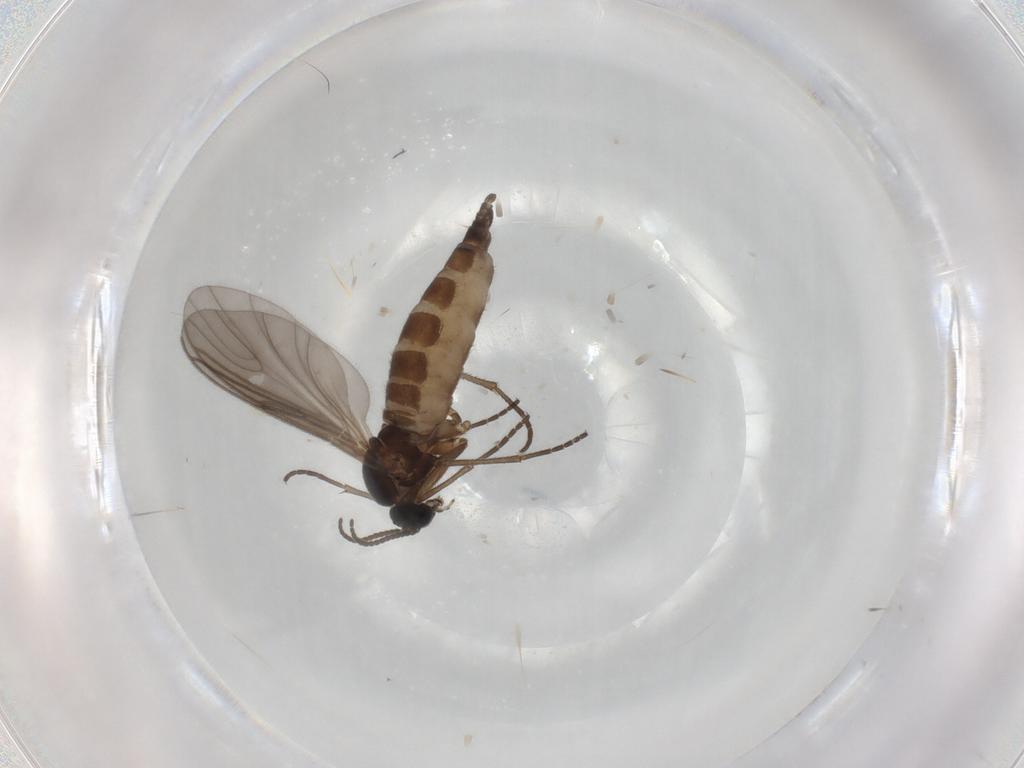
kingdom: Animalia
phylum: Arthropoda
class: Insecta
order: Diptera
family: Sciaridae
